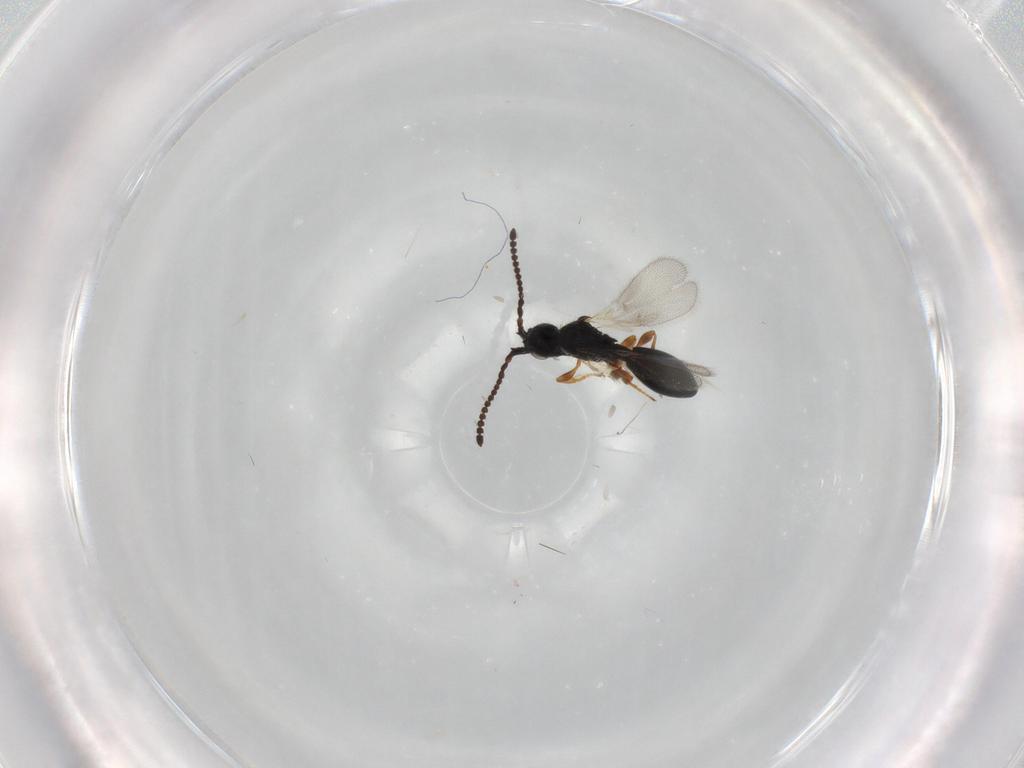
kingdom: Animalia
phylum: Arthropoda
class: Insecta
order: Hymenoptera
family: Diapriidae
